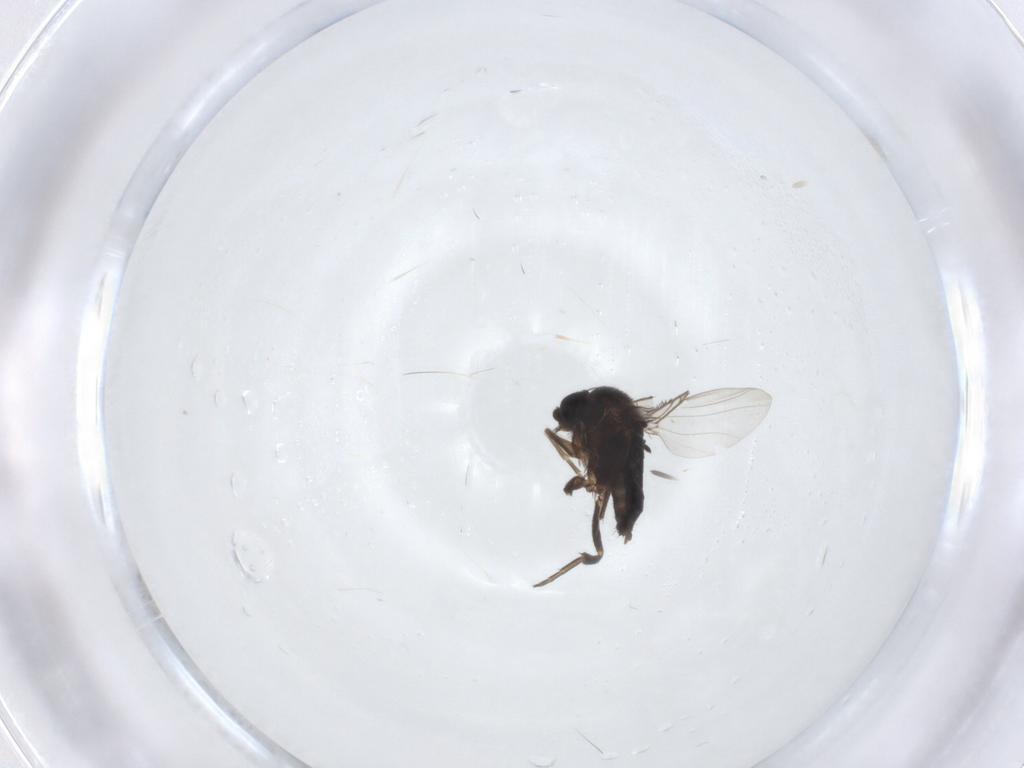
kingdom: Animalia
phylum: Arthropoda
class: Insecta
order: Diptera
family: Phoridae
